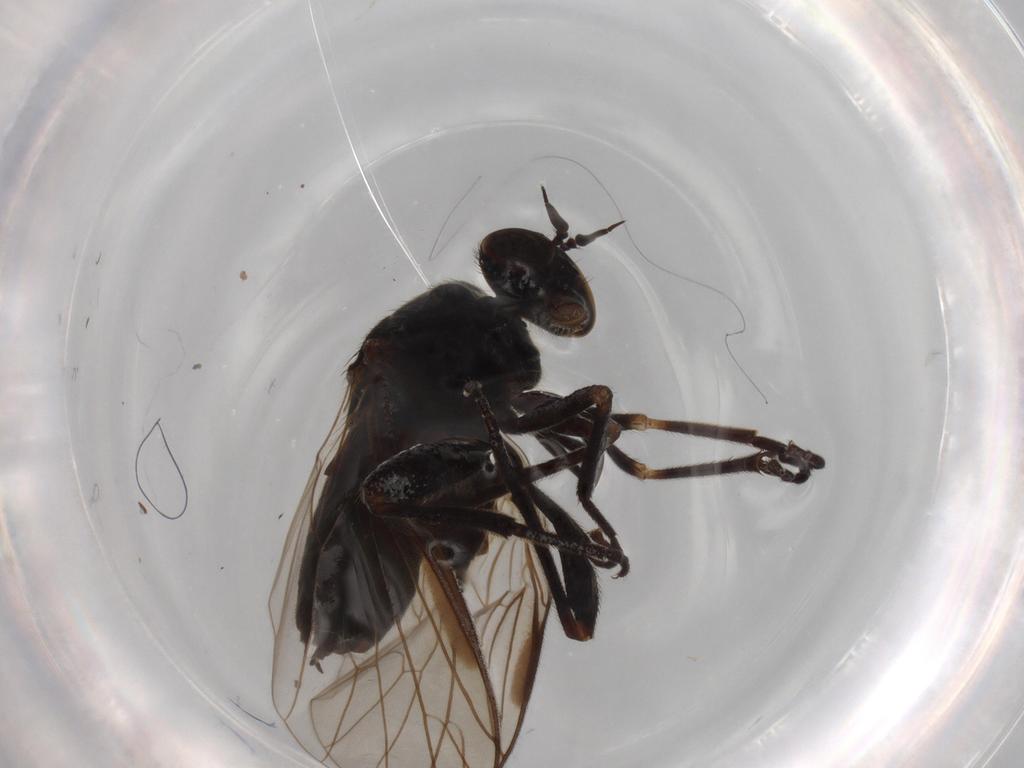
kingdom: Animalia
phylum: Arthropoda
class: Insecta
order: Diptera
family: Empididae
